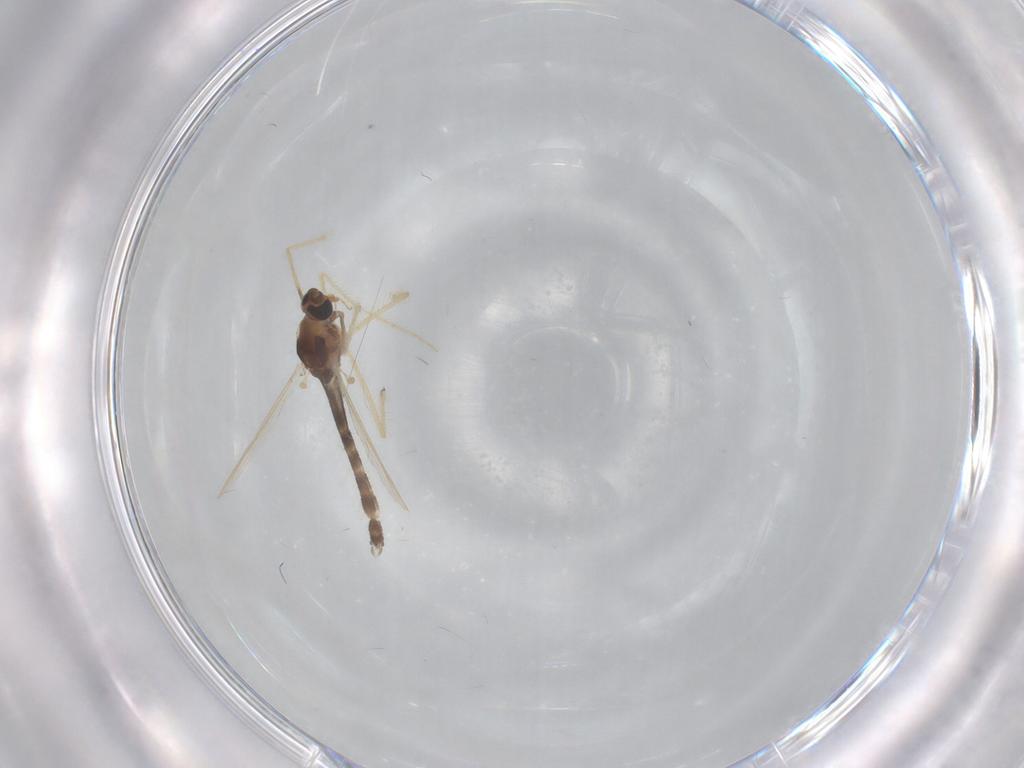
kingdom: Animalia
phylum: Arthropoda
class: Insecta
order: Diptera
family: Chironomidae
